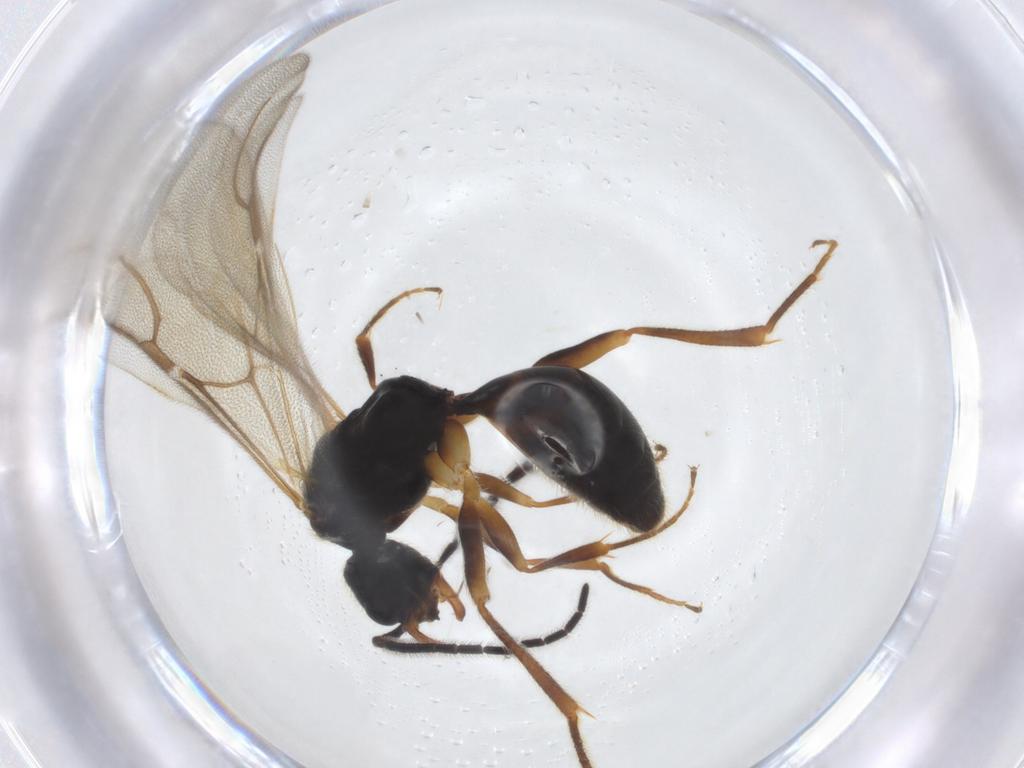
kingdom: Animalia
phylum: Arthropoda
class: Insecta
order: Hymenoptera
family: Bethylidae
